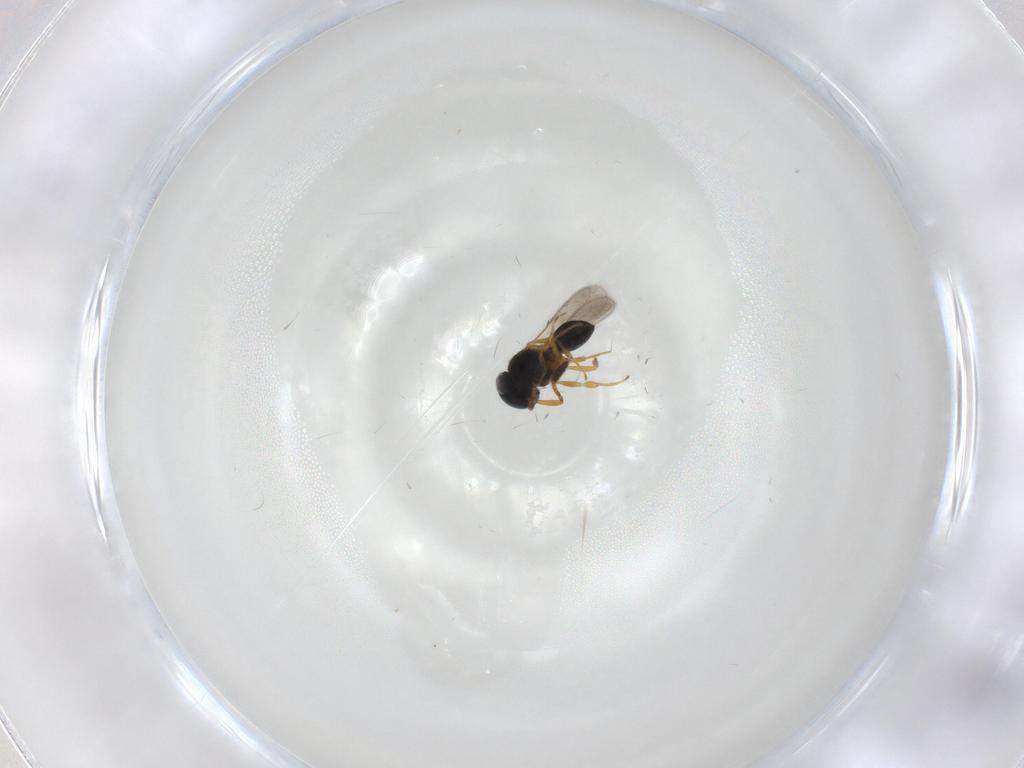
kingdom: Animalia
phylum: Arthropoda
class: Insecta
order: Hymenoptera
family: Scelionidae
